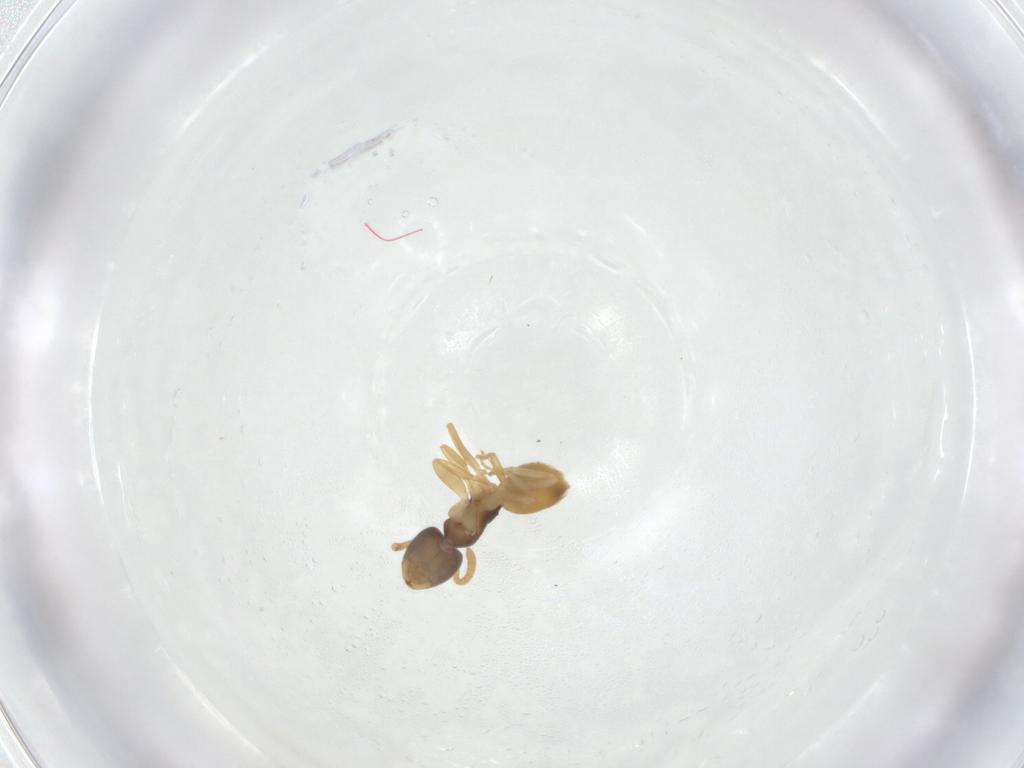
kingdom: Animalia
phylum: Arthropoda
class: Insecta
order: Hymenoptera
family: Formicidae
